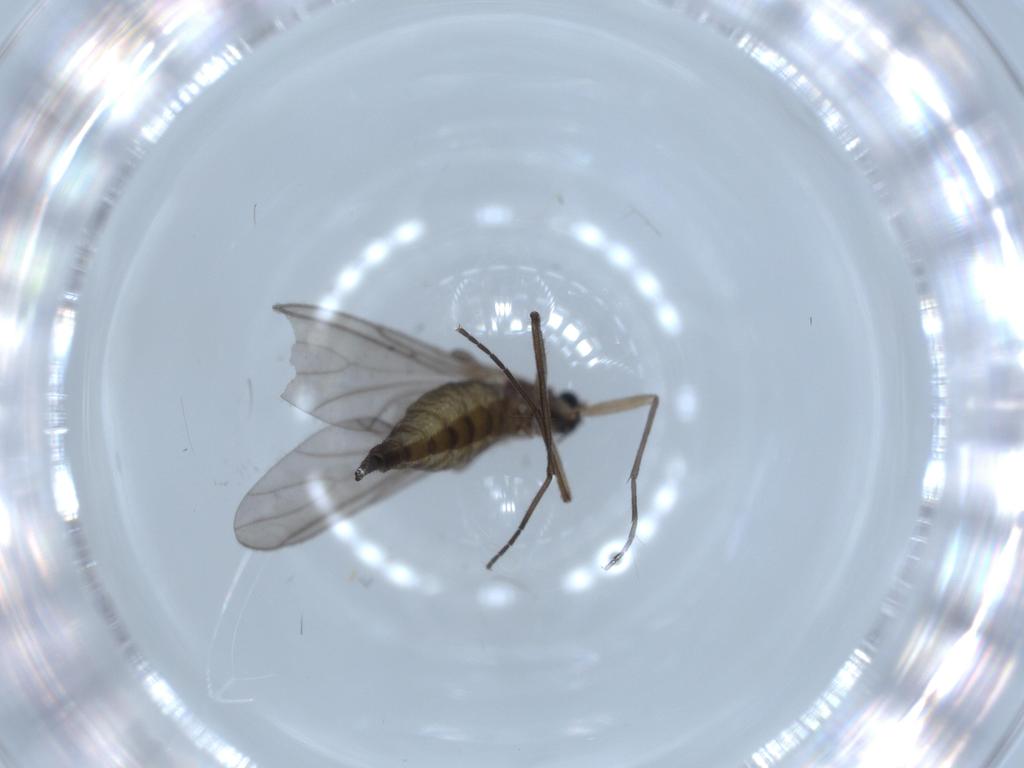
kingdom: Animalia
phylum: Arthropoda
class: Insecta
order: Diptera
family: Sciaridae
